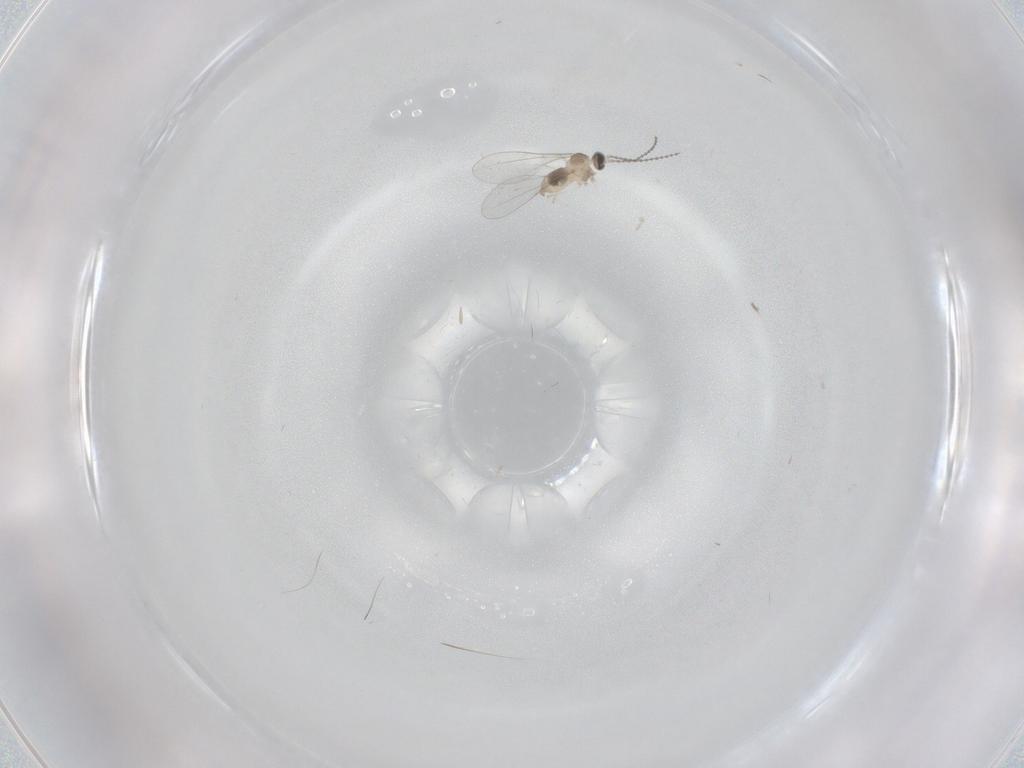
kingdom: Animalia
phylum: Arthropoda
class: Insecta
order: Diptera
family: Cecidomyiidae
